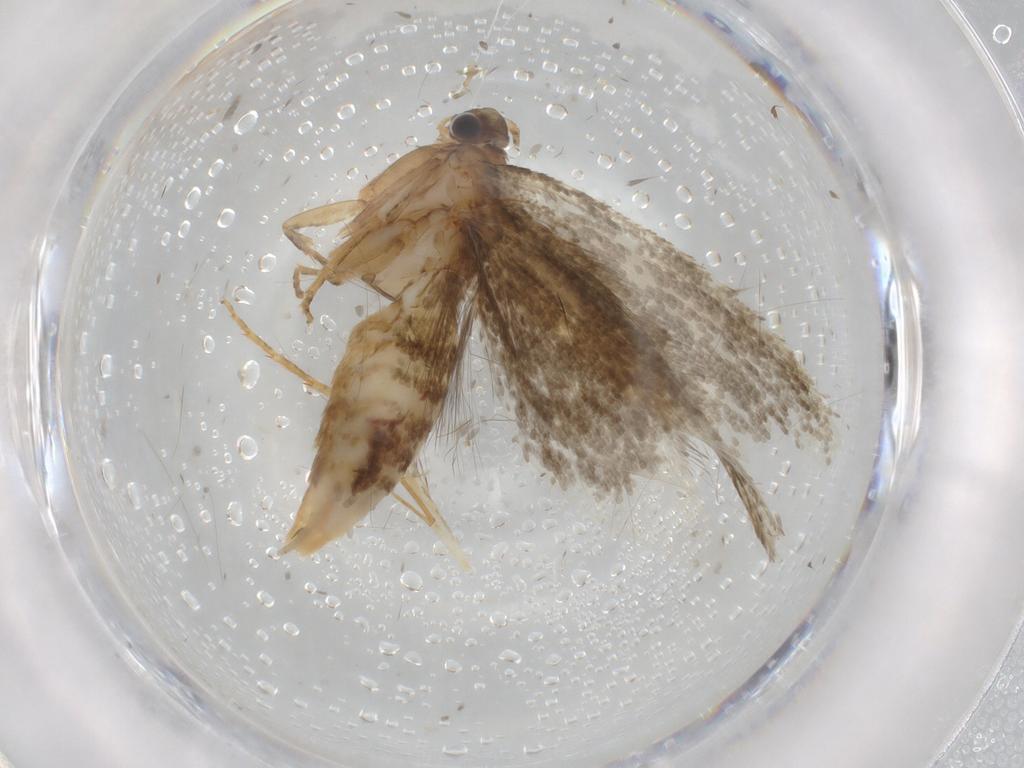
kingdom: Animalia
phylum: Arthropoda
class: Insecta
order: Lepidoptera
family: Crambidae
